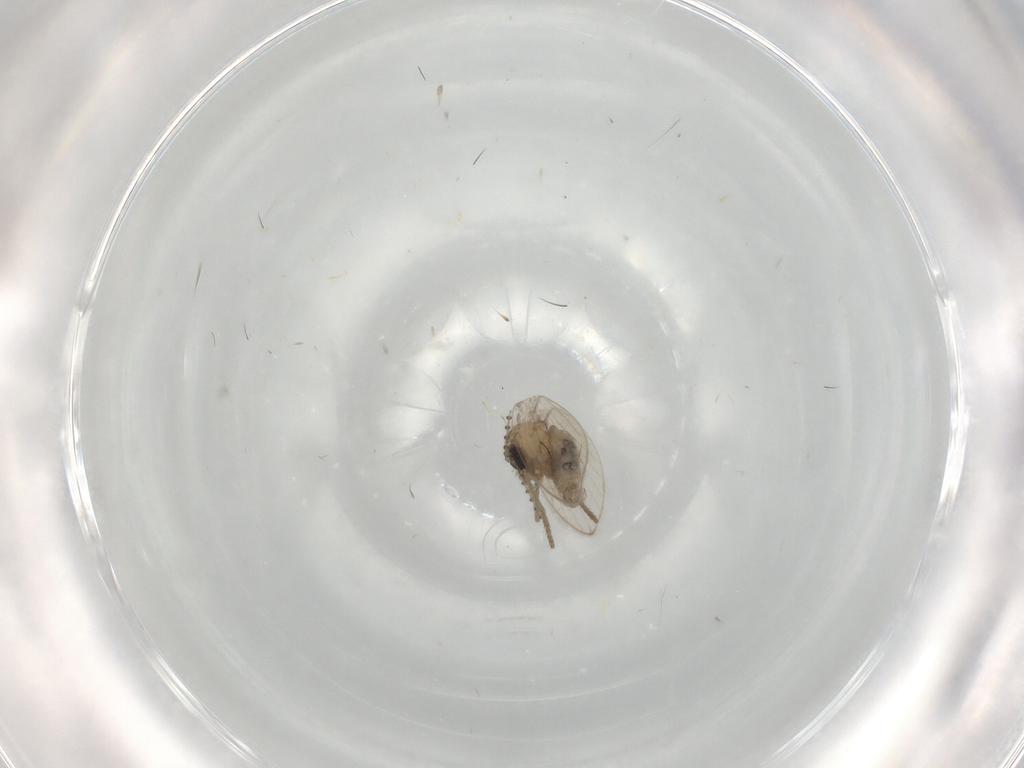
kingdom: Animalia
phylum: Arthropoda
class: Insecta
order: Diptera
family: Psychodidae
